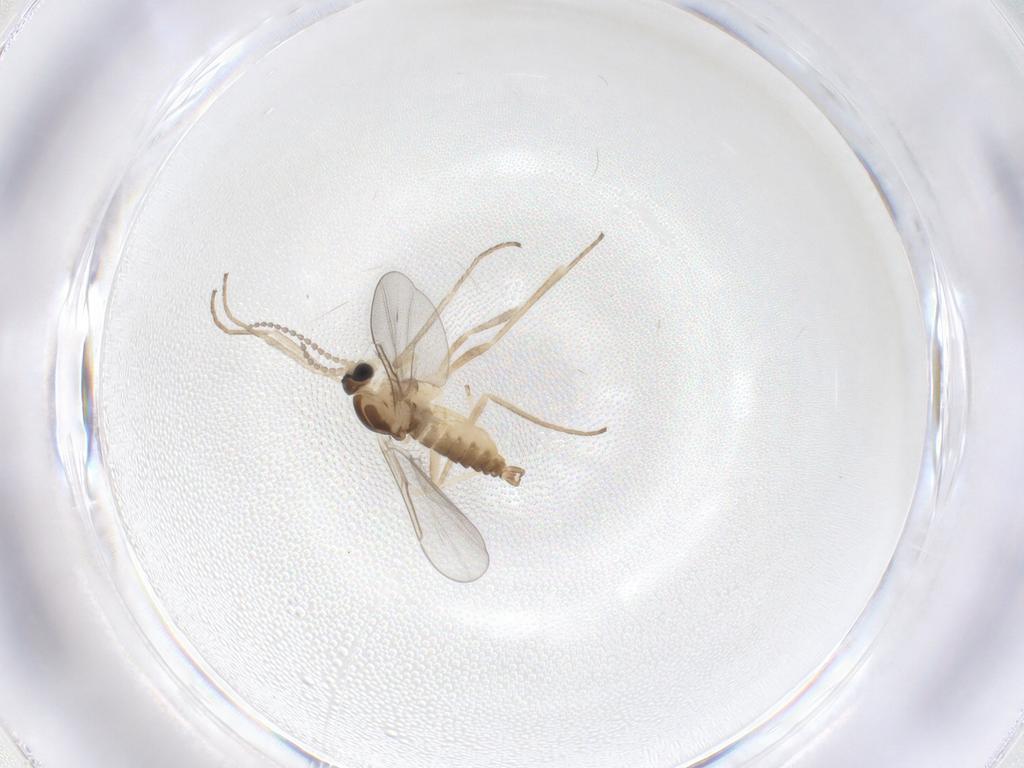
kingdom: Animalia
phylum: Arthropoda
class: Insecta
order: Diptera
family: Cecidomyiidae
